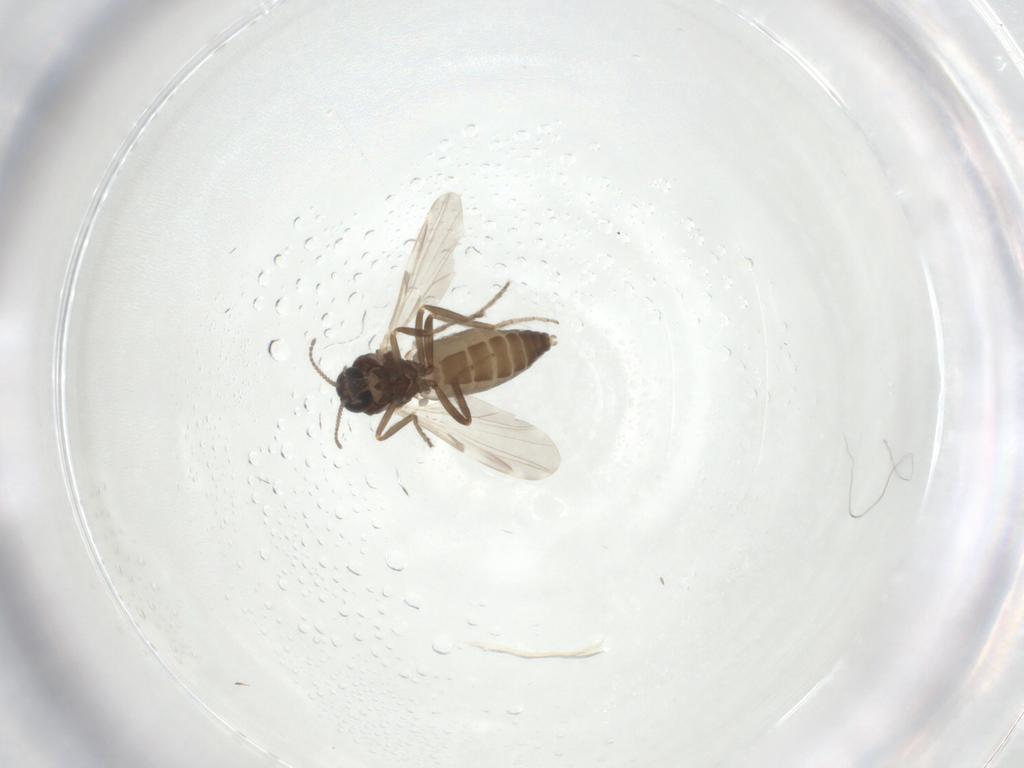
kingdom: Animalia
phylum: Arthropoda
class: Insecta
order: Diptera
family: Ceratopogonidae
